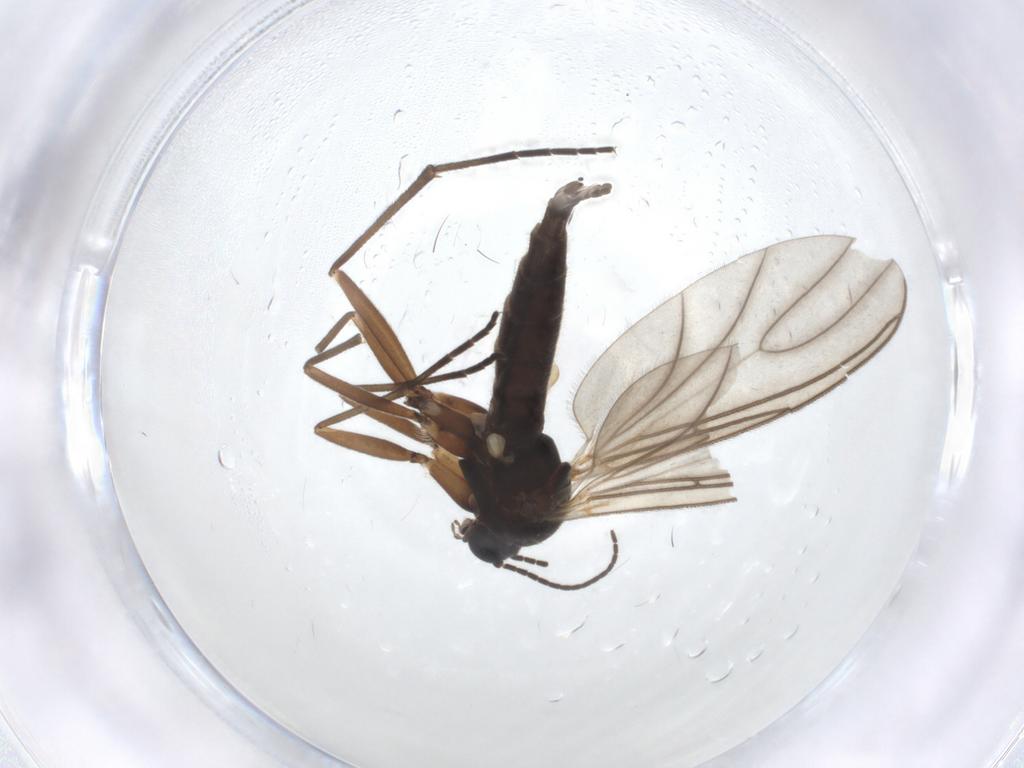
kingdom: Animalia
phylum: Arthropoda
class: Insecta
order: Diptera
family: Sciaridae
